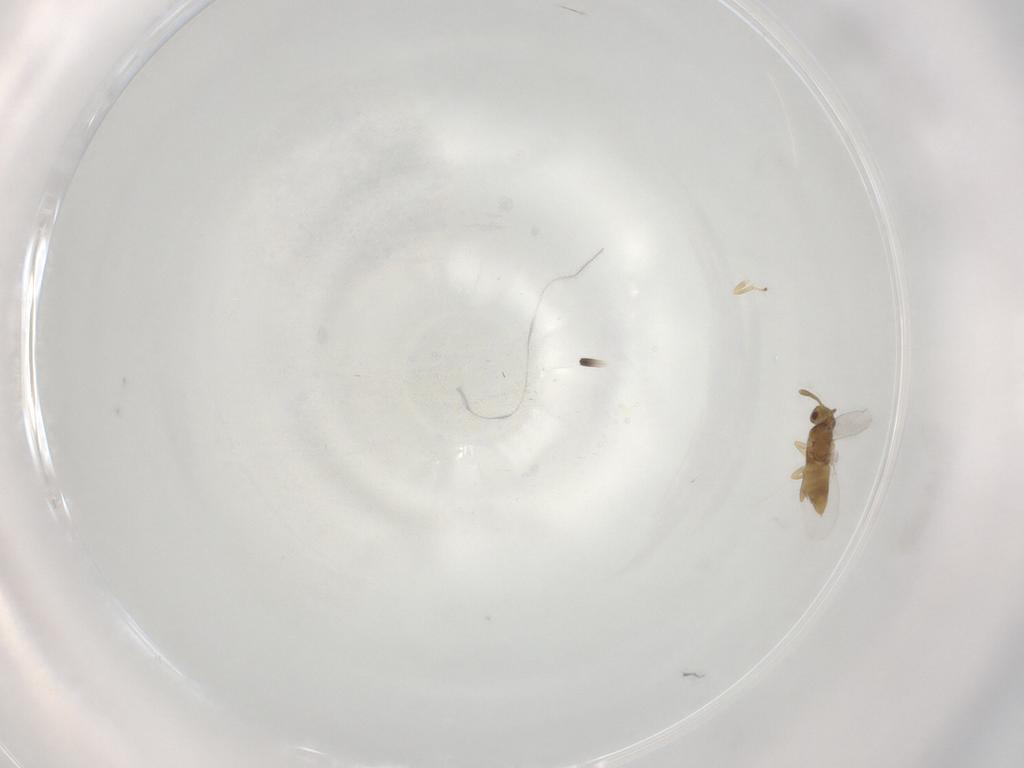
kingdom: Animalia
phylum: Arthropoda
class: Insecta
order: Hymenoptera
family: Encyrtidae
